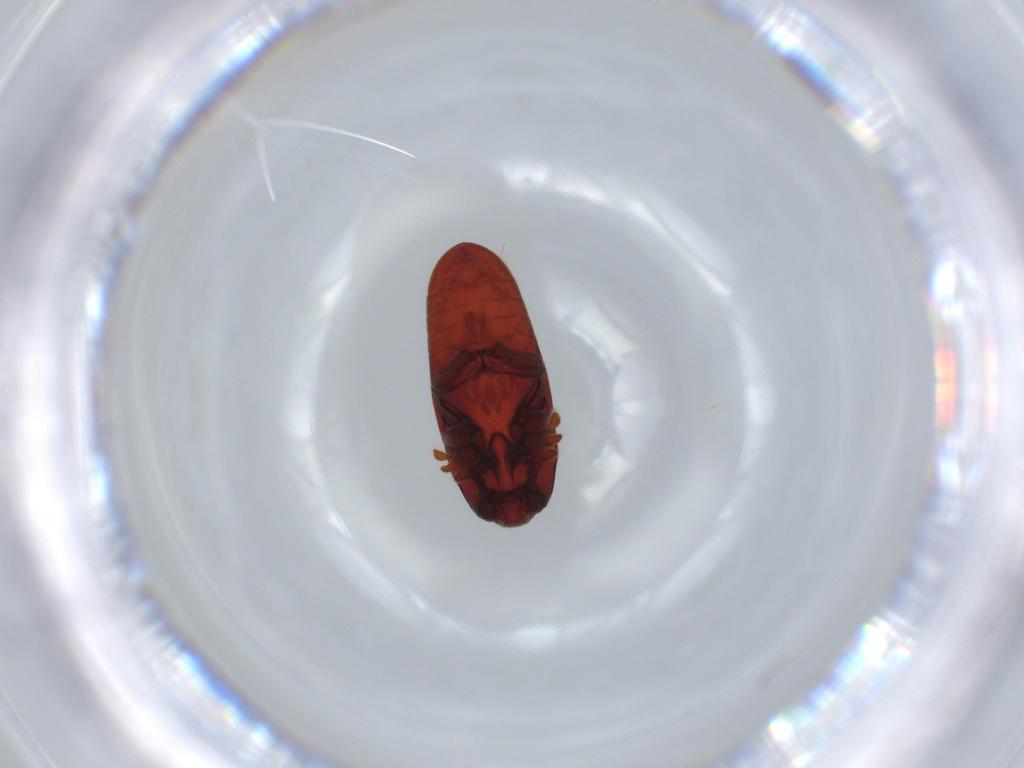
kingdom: Animalia
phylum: Arthropoda
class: Insecta
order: Coleoptera
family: Throscidae
